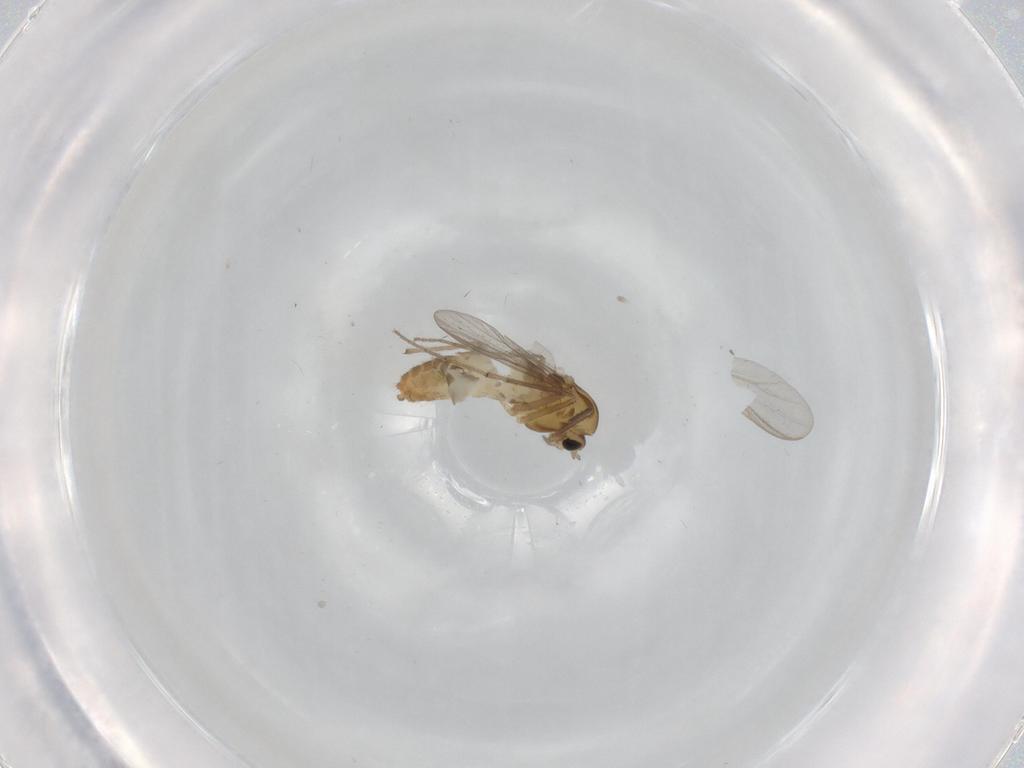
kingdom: Animalia
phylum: Arthropoda
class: Insecta
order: Diptera
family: Chironomidae
